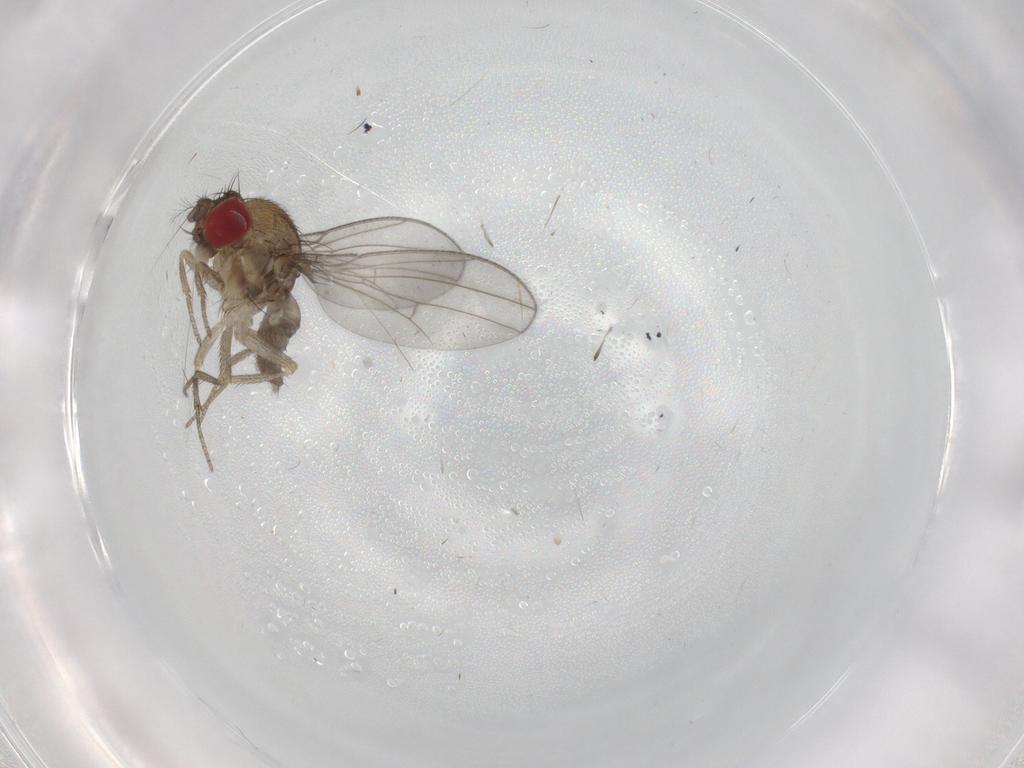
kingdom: Animalia
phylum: Arthropoda
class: Insecta
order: Diptera
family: Drosophilidae
